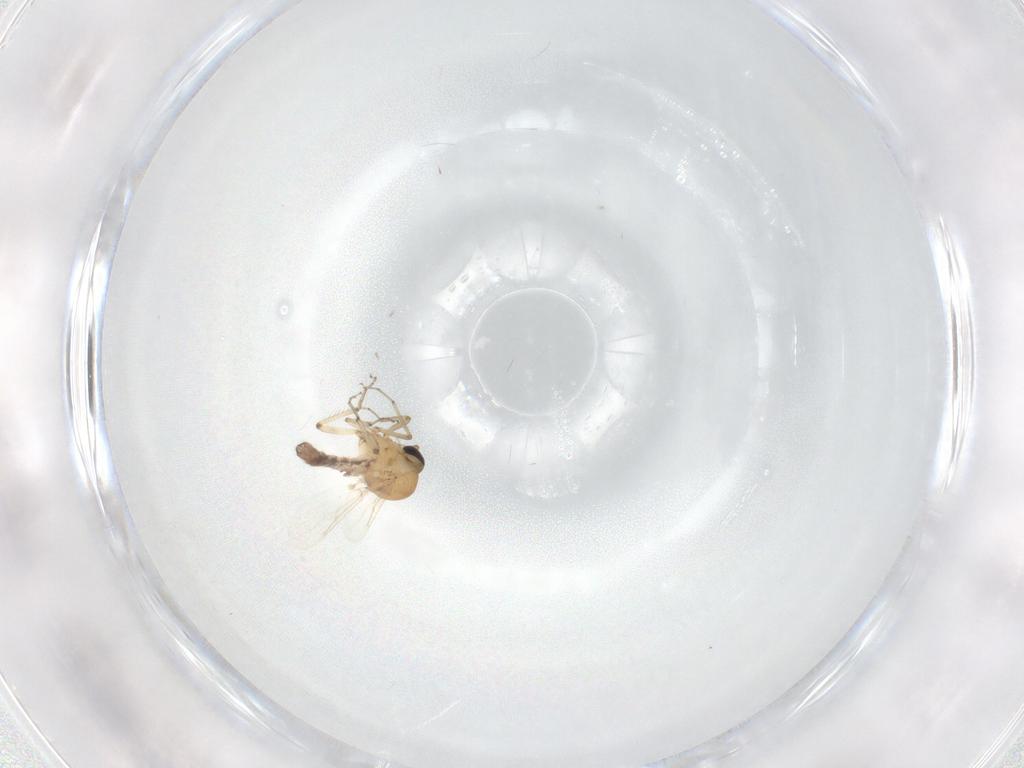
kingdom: Animalia
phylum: Arthropoda
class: Insecta
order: Diptera
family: Ceratopogonidae
